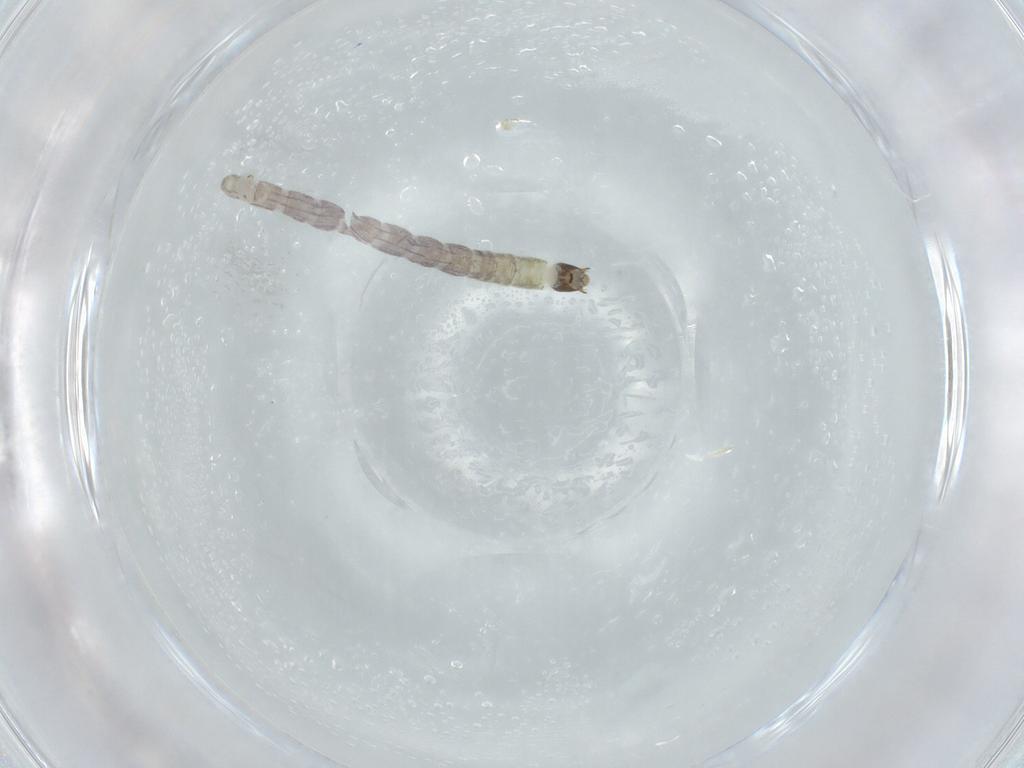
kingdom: Animalia
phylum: Arthropoda
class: Insecta
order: Diptera
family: Chironomidae
